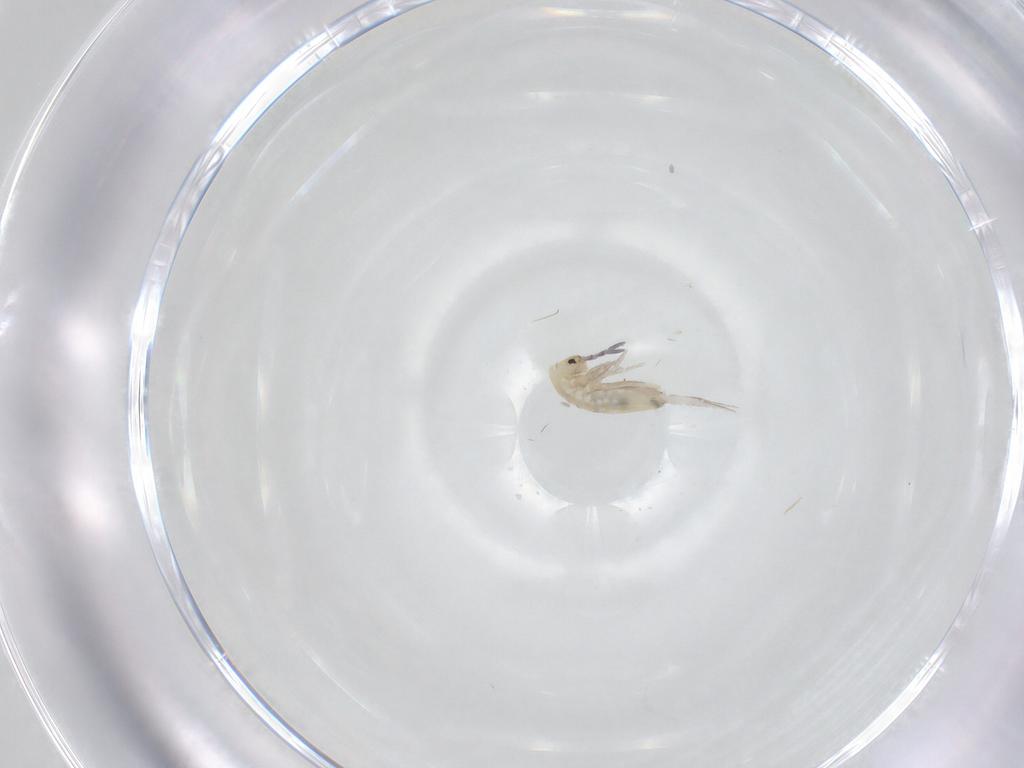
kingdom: Animalia
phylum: Arthropoda
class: Collembola
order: Entomobryomorpha
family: Entomobryidae
